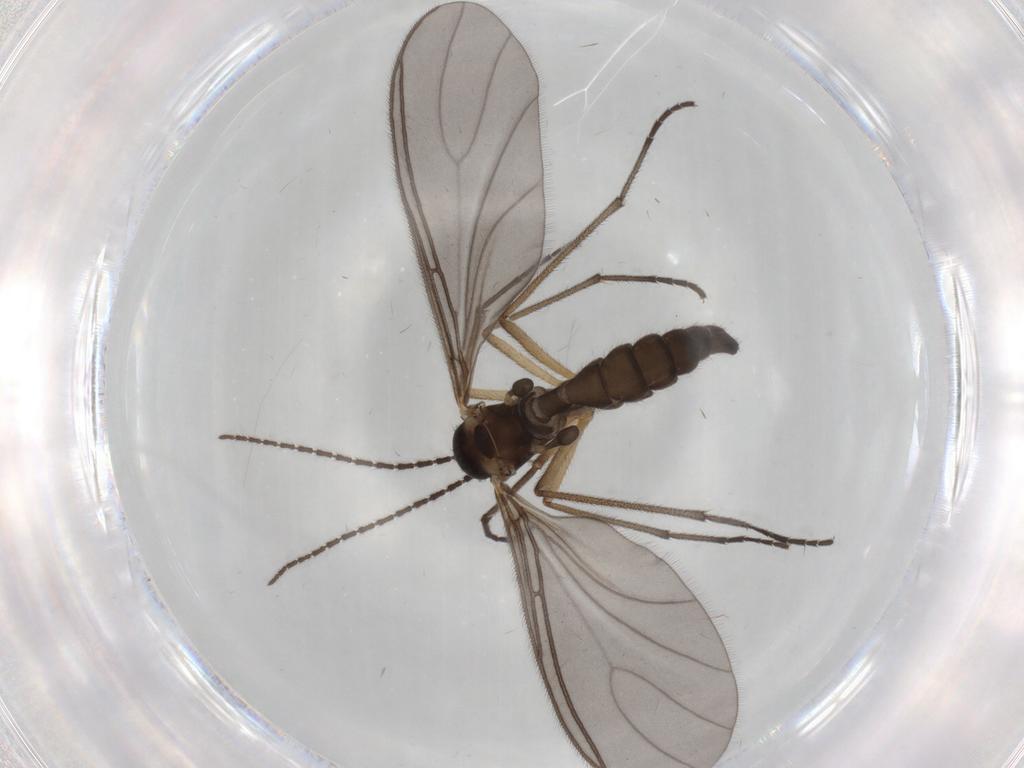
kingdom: Animalia
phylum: Arthropoda
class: Insecta
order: Diptera
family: Sciaridae
